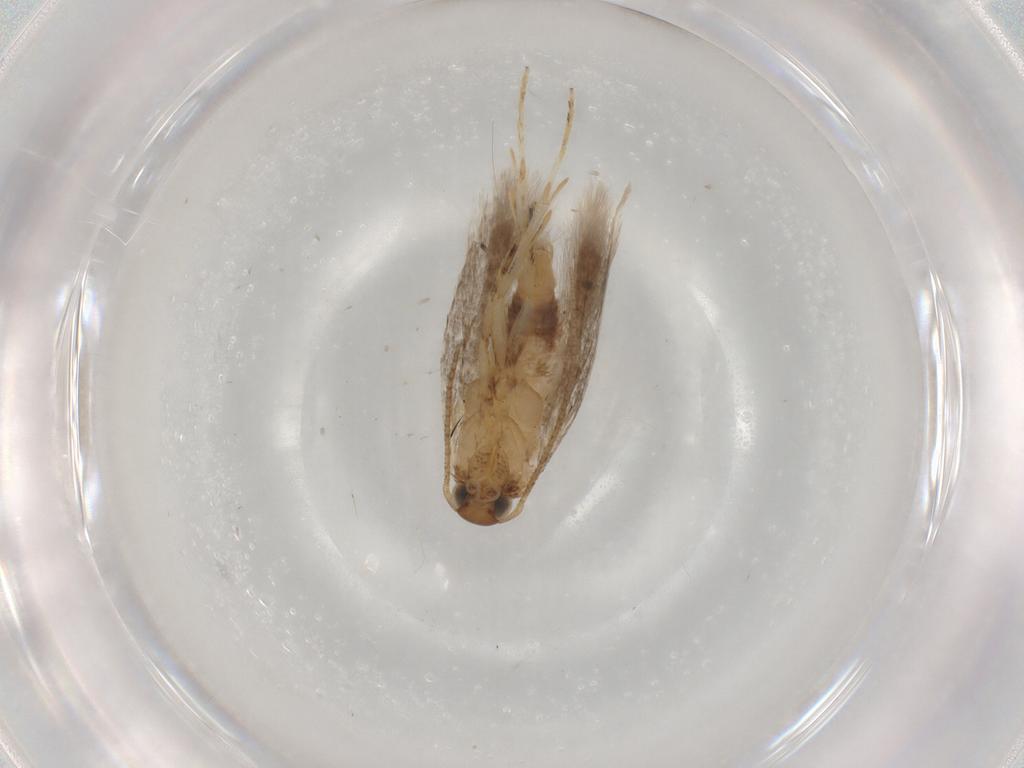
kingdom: Animalia
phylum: Arthropoda
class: Insecta
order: Lepidoptera
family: Gelechiidae
